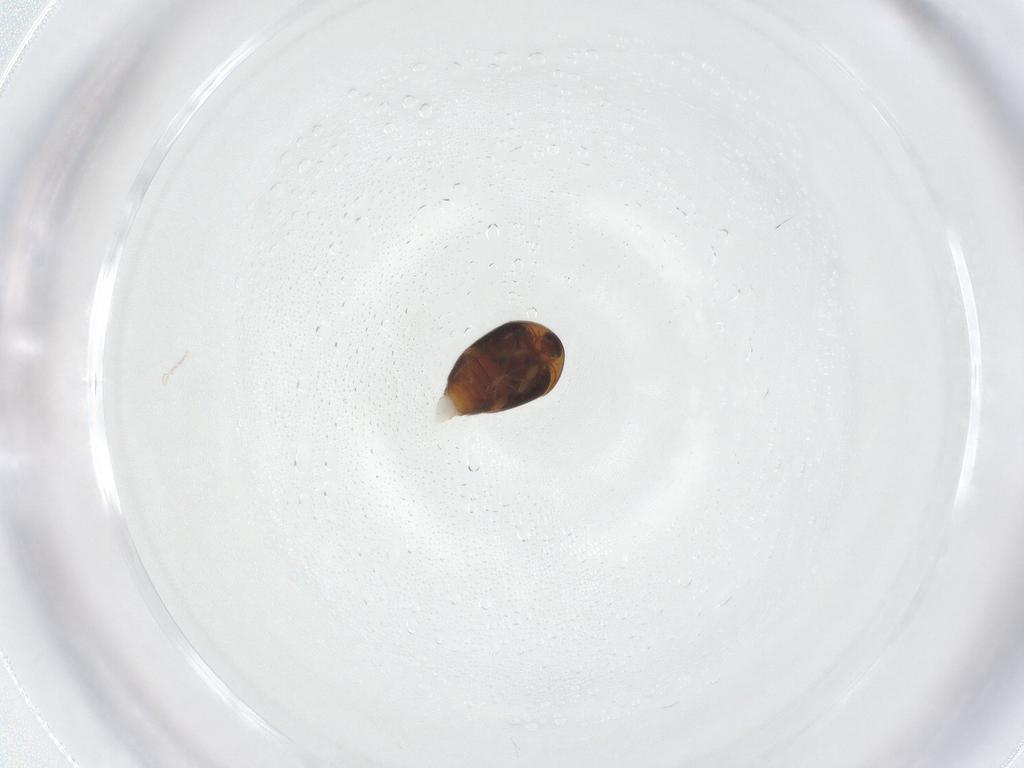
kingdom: Animalia
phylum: Arthropoda
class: Insecta
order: Coleoptera
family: Corylophidae
